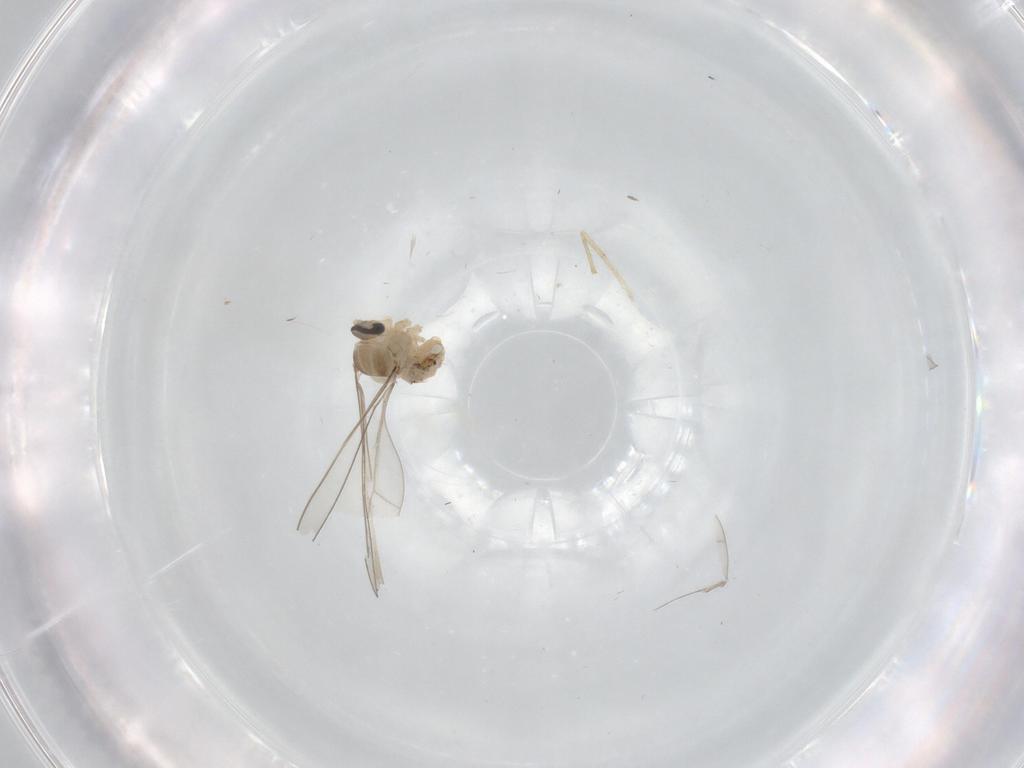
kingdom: Animalia
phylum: Arthropoda
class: Insecta
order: Diptera
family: Cecidomyiidae
